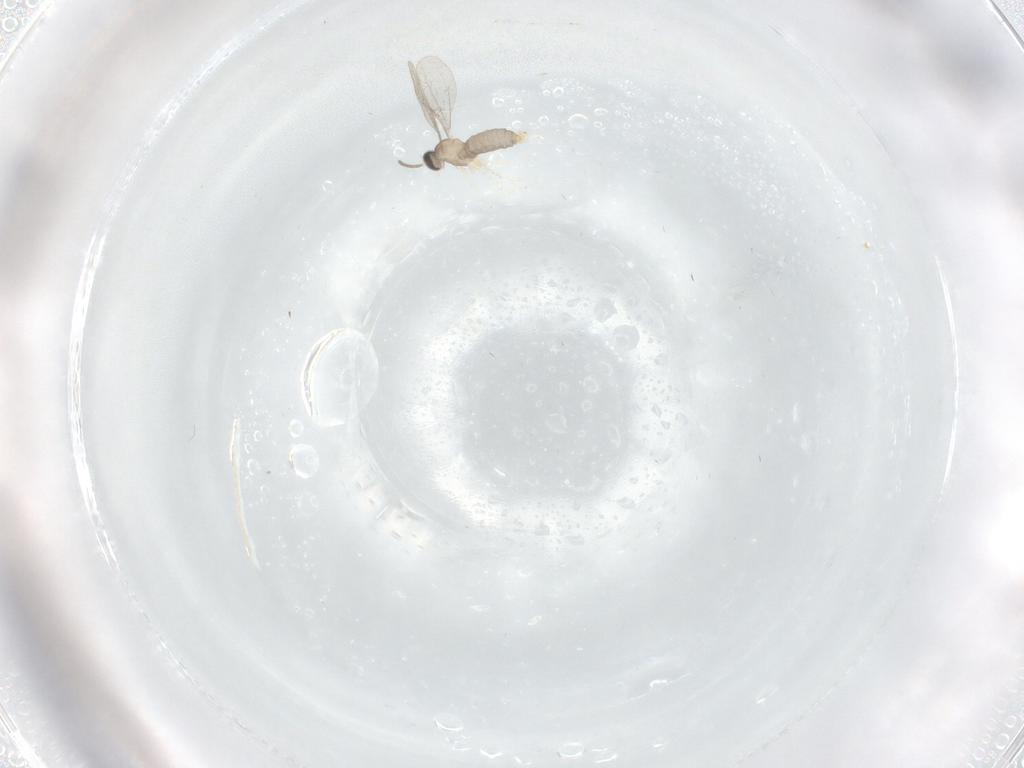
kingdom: Animalia
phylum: Arthropoda
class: Insecta
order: Diptera
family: Cecidomyiidae
